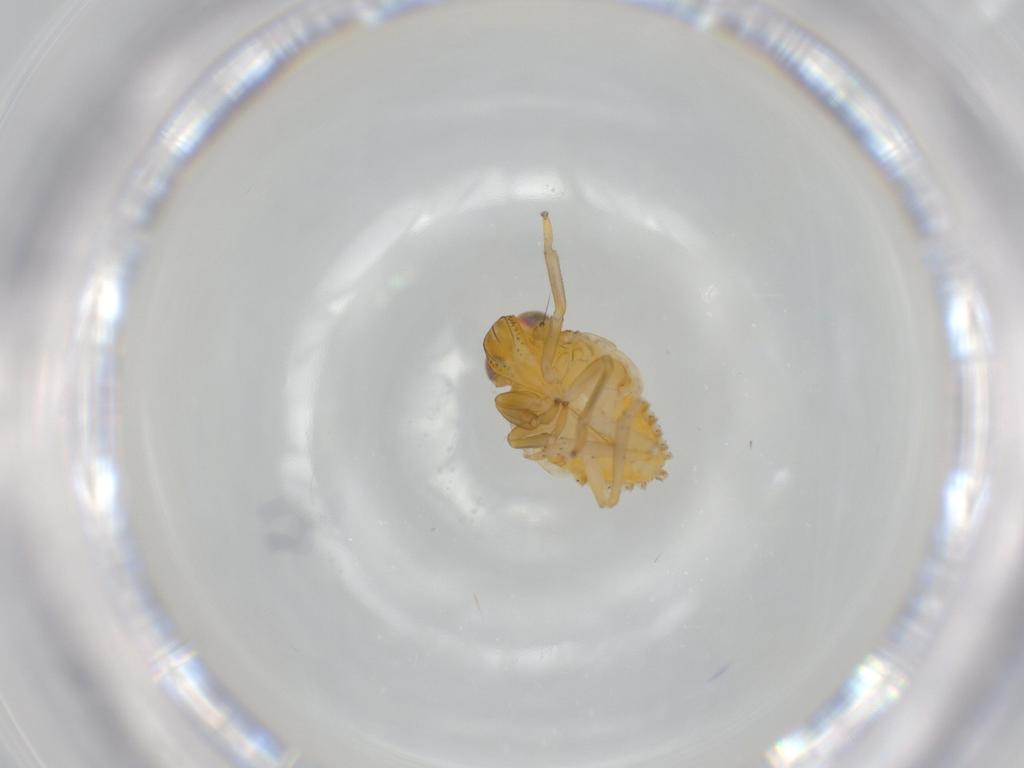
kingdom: Animalia
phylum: Arthropoda
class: Insecta
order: Hemiptera
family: Issidae
